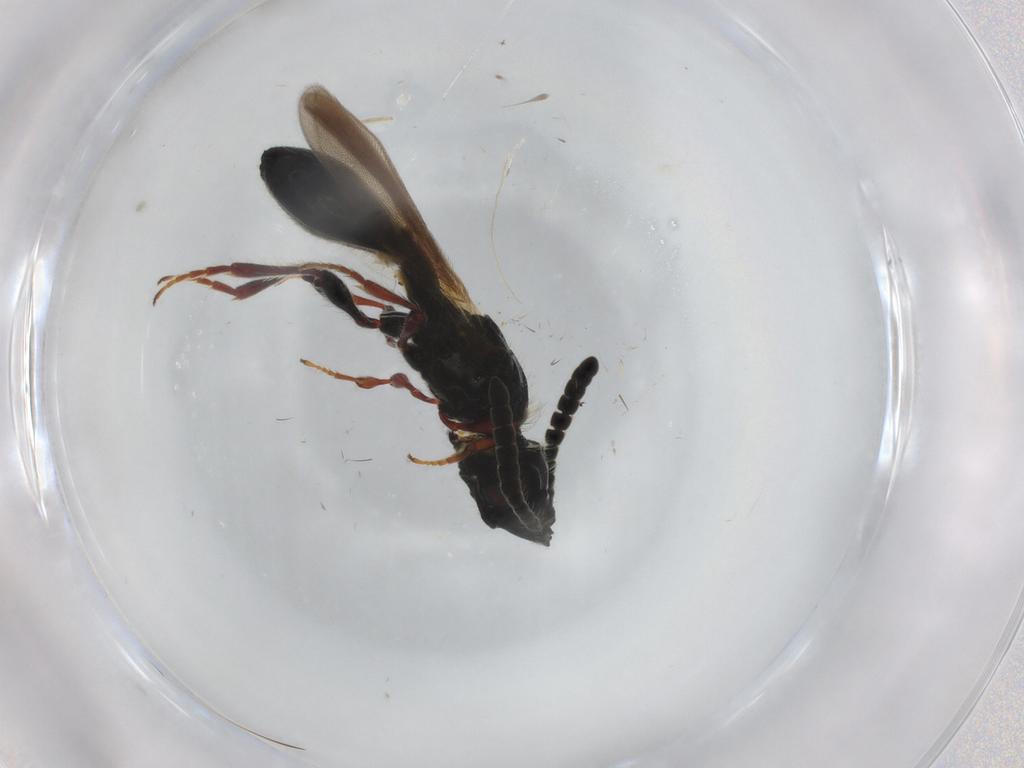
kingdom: Animalia
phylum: Arthropoda
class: Insecta
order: Hymenoptera
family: Diapriidae
